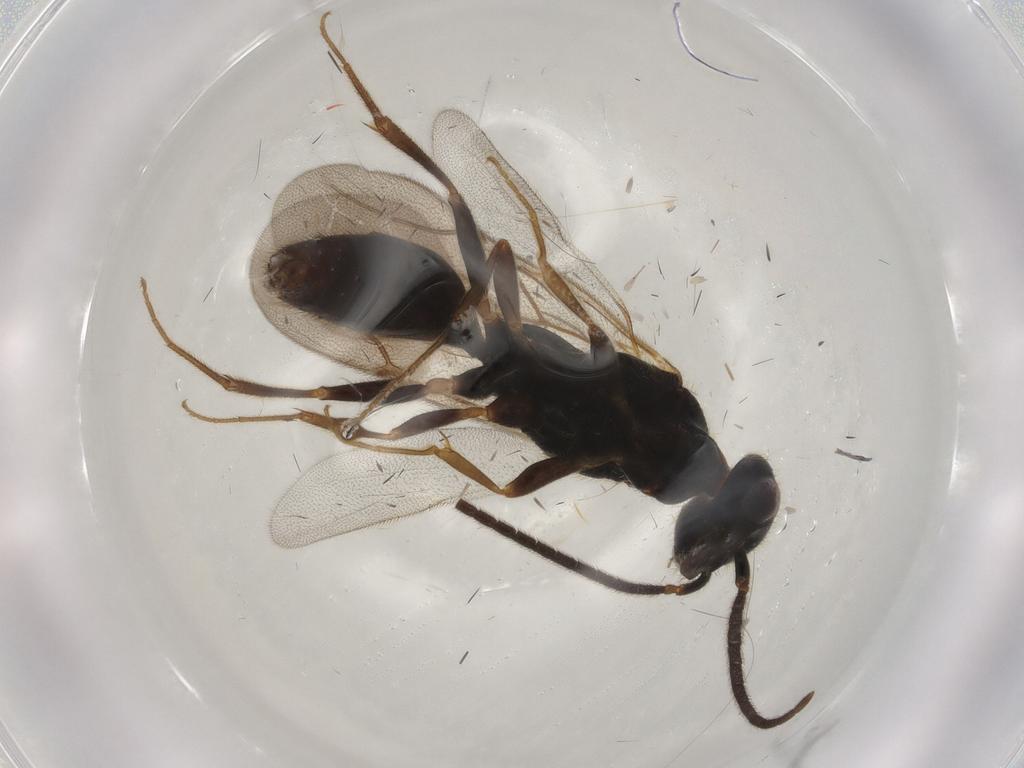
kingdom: Animalia
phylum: Arthropoda
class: Insecta
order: Hymenoptera
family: Bethylidae
